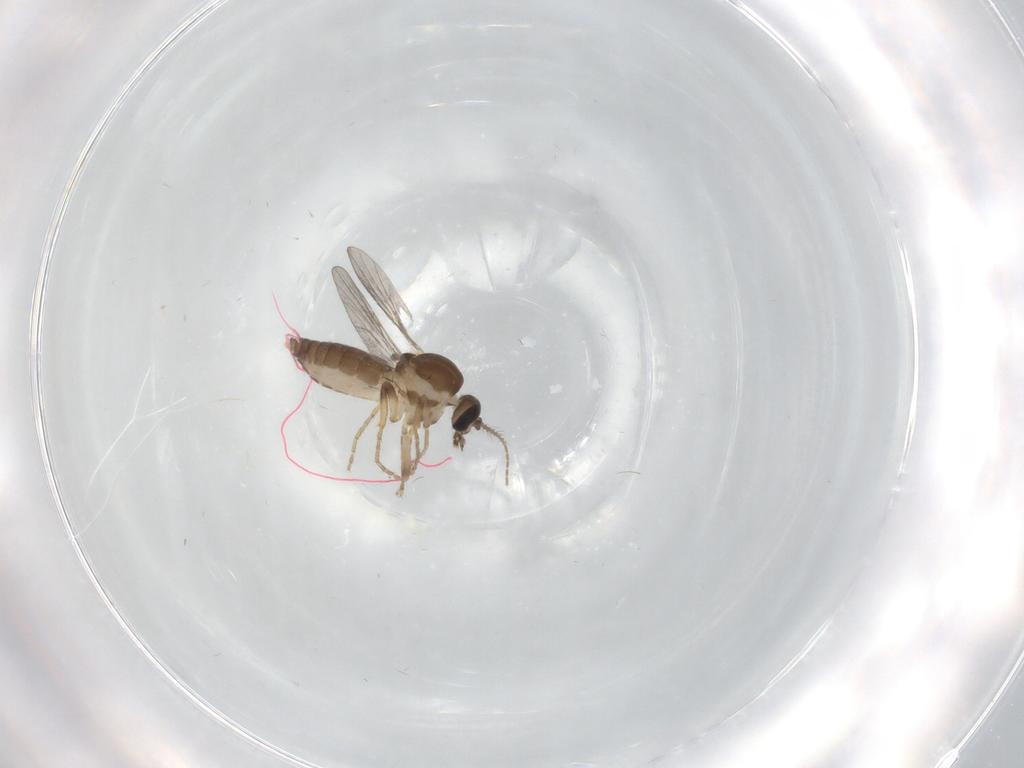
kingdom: Animalia
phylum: Arthropoda
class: Insecta
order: Diptera
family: Ceratopogonidae
